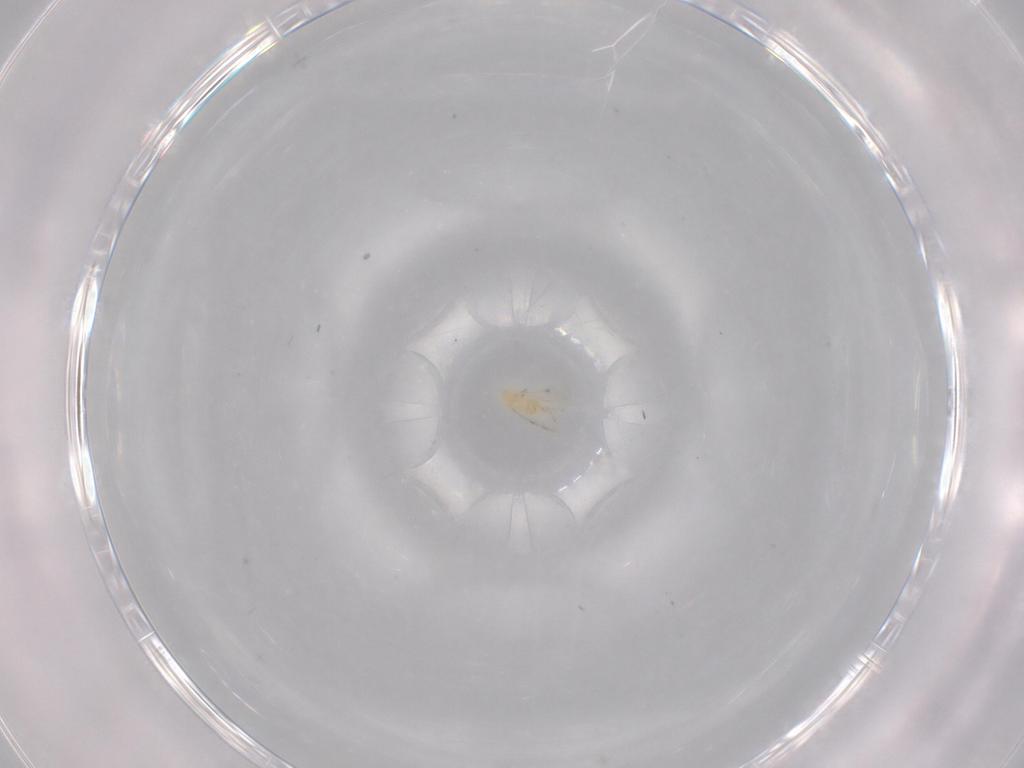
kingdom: Animalia
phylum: Arthropoda
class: Insecta
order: Hymenoptera
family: Aphelinidae
